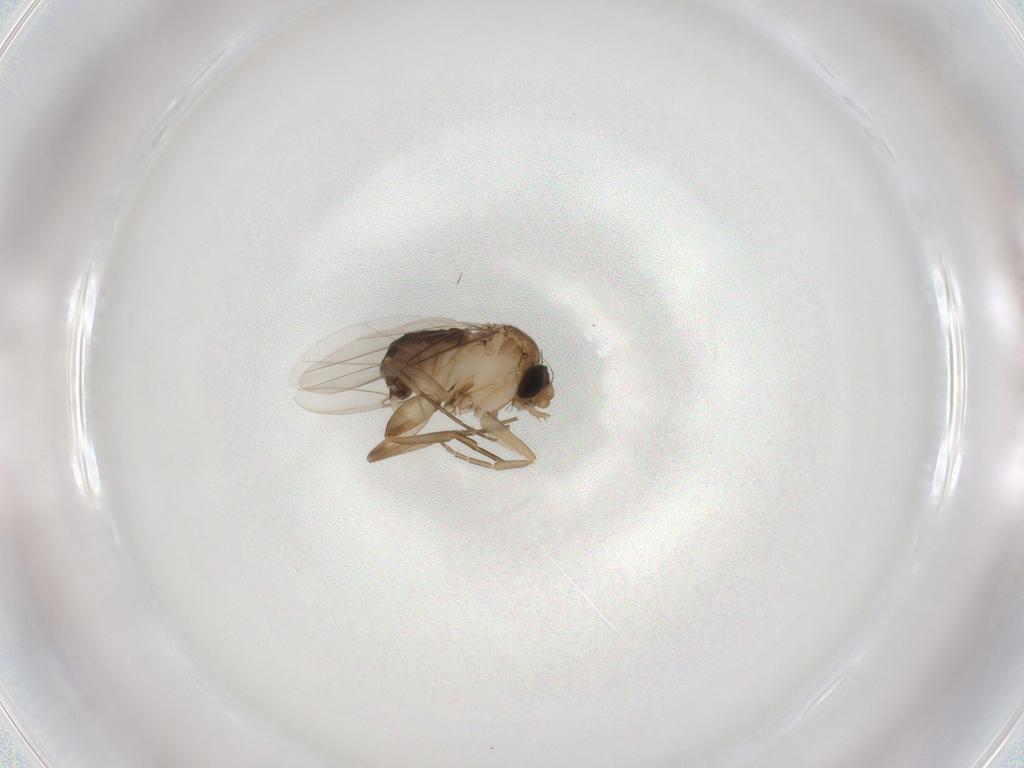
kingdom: Animalia
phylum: Arthropoda
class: Insecta
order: Diptera
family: Phoridae
